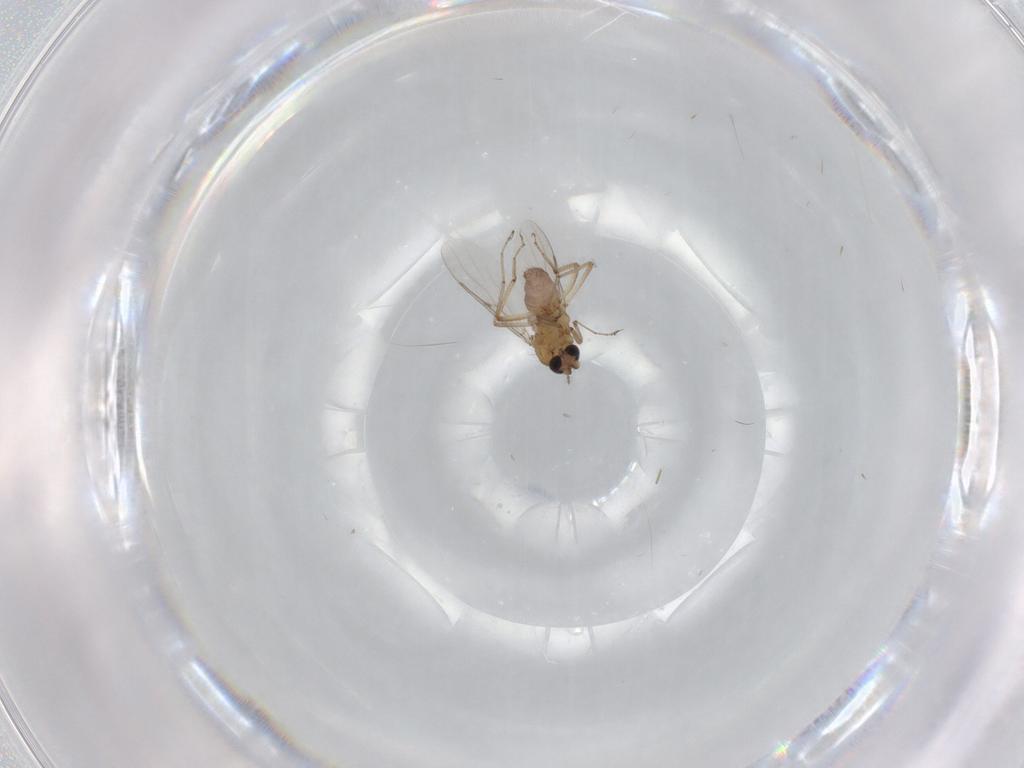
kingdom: Animalia
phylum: Arthropoda
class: Insecta
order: Diptera
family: Ceratopogonidae
